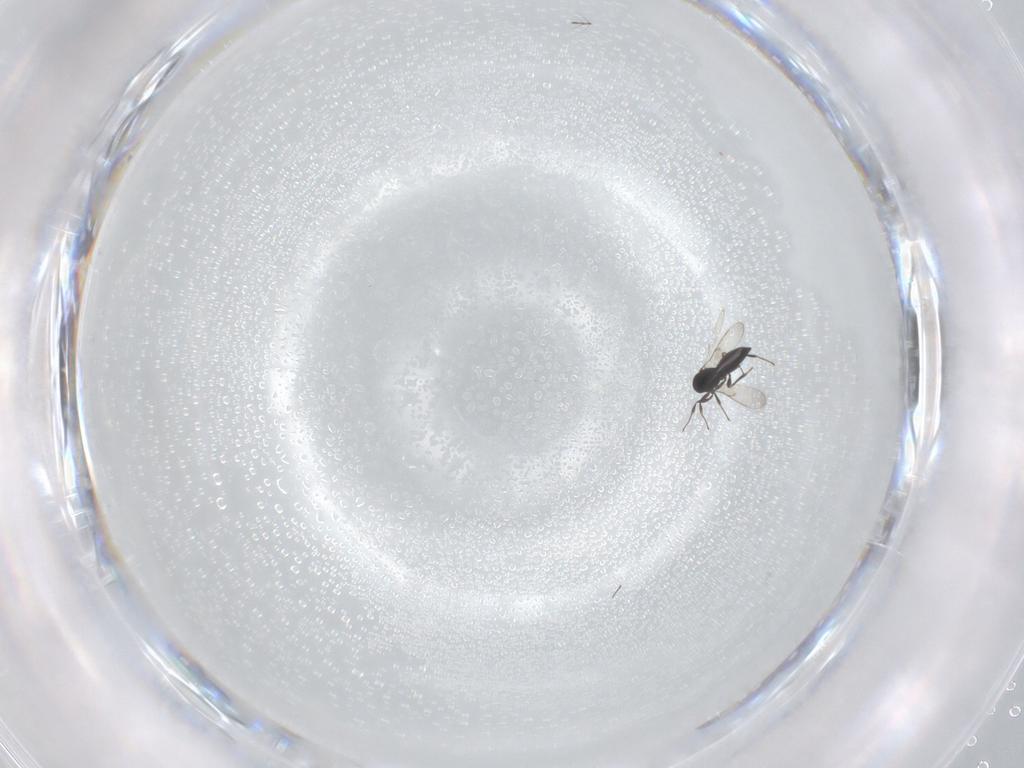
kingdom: Animalia
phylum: Arthropoda
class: Insecta
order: Hymenoptera
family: Scelionidae
